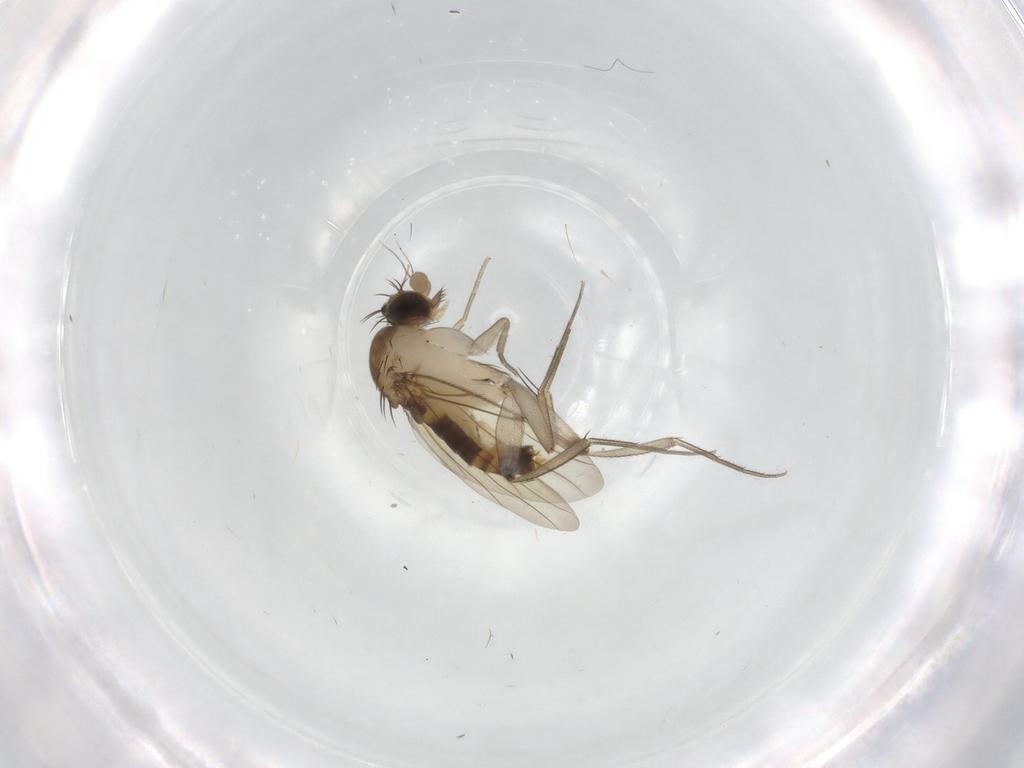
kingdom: Animalia
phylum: Arthropoda
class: Insecta
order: Diptera
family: Phoridae
